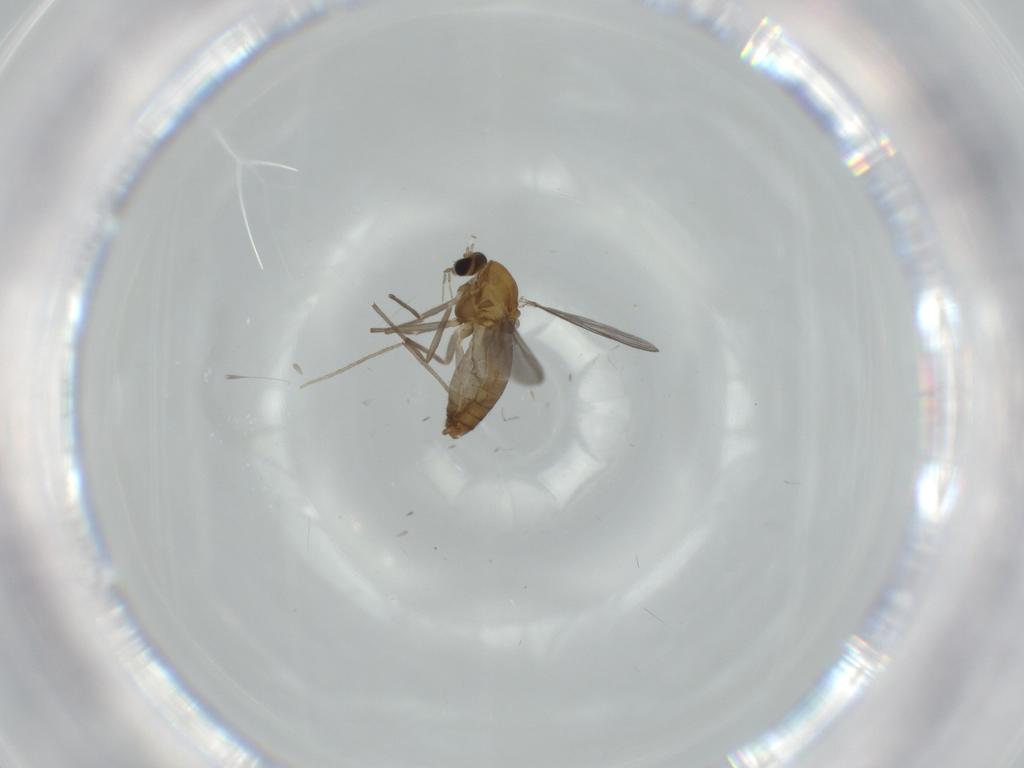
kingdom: Animalia
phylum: Arthropoda
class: Insecta
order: Diptera
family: Chironomidae
